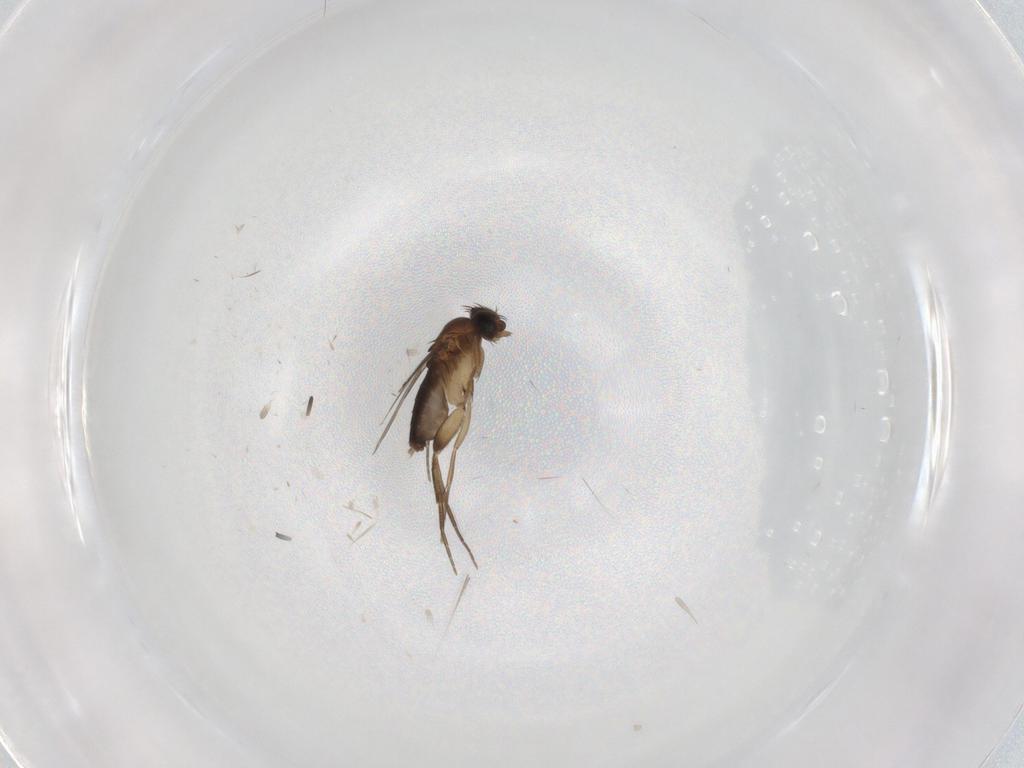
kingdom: Animalia
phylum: Arthropoda
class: Insecta
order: Diptera
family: Phoridae
